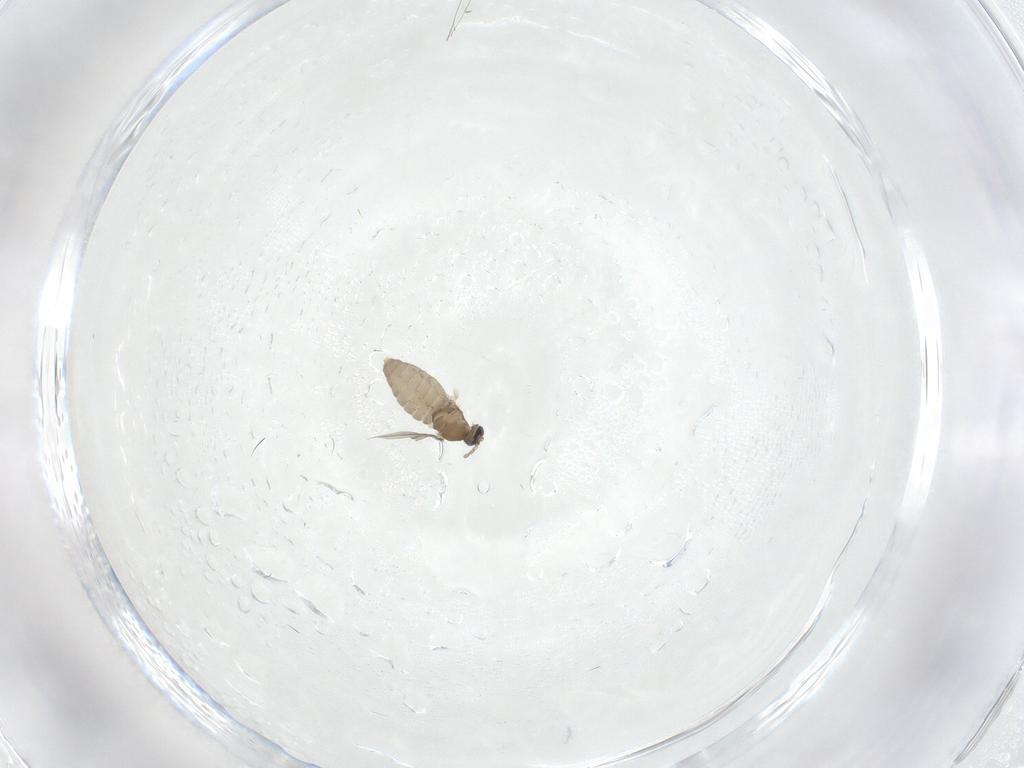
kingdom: Animalia
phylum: Arthropoda
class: Insecta
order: Diptera
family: Cecidomyiidae
